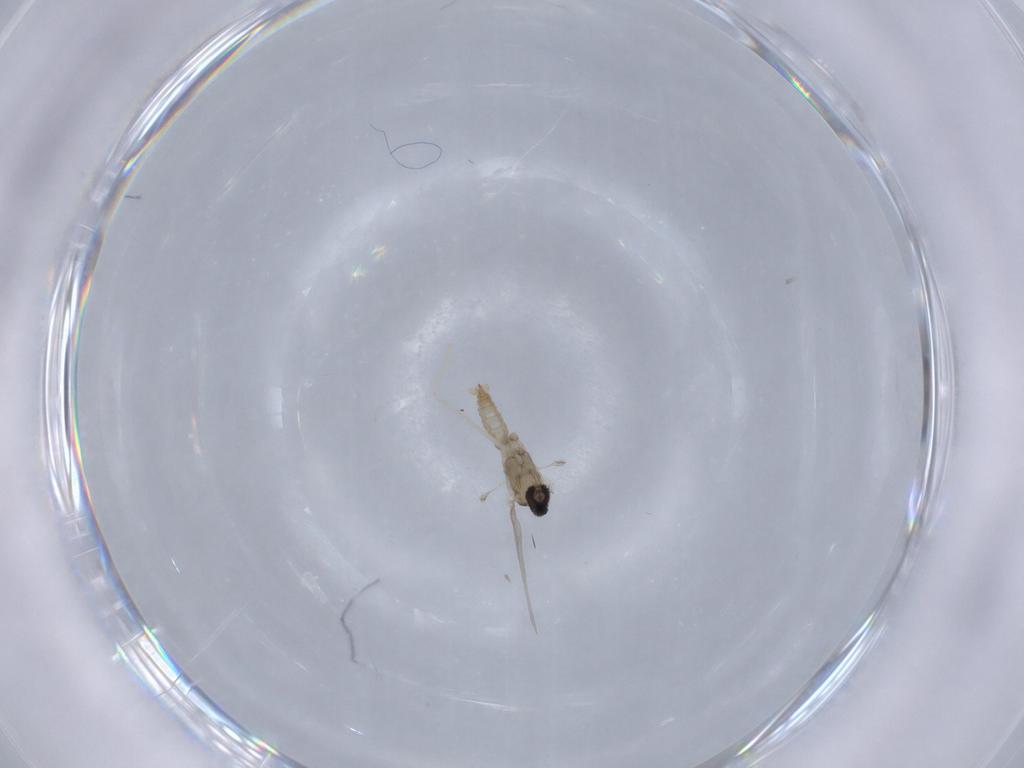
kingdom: Animalia
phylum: Arthropoda
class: Insecta
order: Diptera
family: Cecidomyiidae
